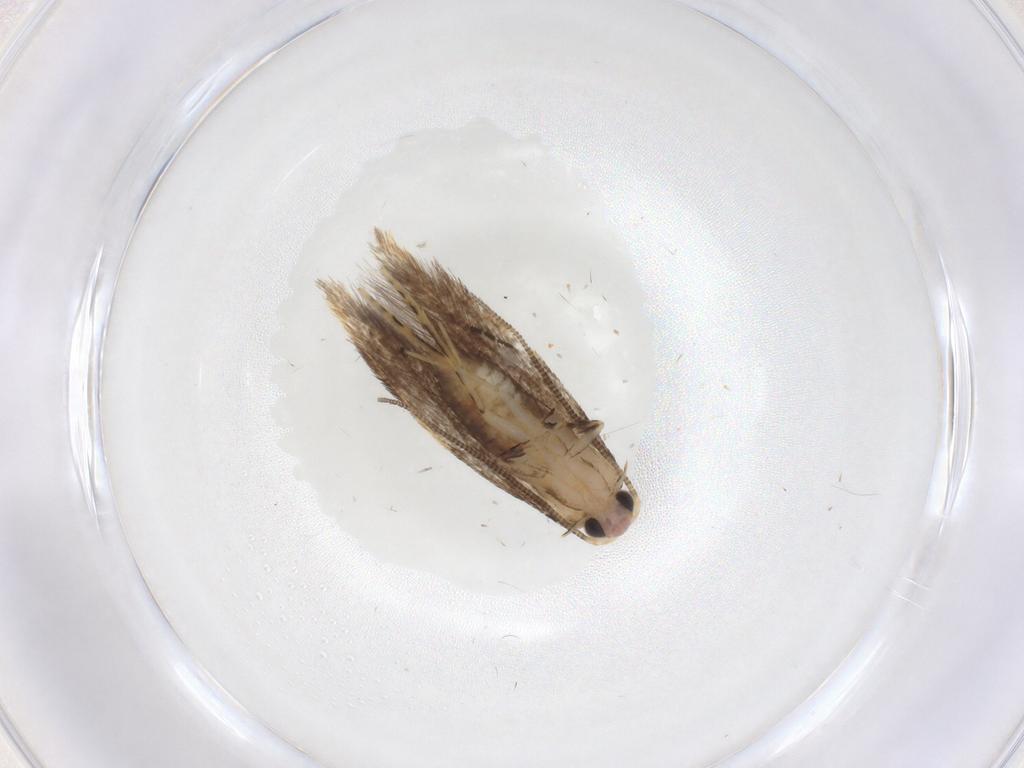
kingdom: Animalia
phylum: Arthropoda
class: Insecta
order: Lepidoptera
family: Tineidae
